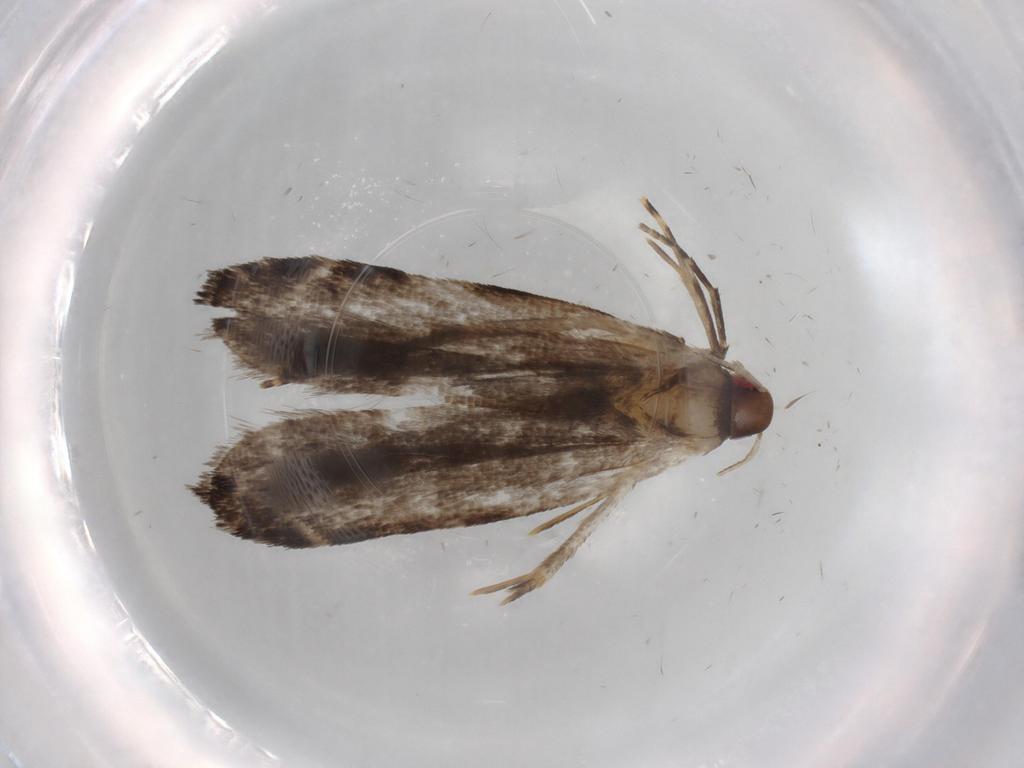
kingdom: Animalia
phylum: Arthropoda
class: Insecta
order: Lepidoptera
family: Gelechiidae
